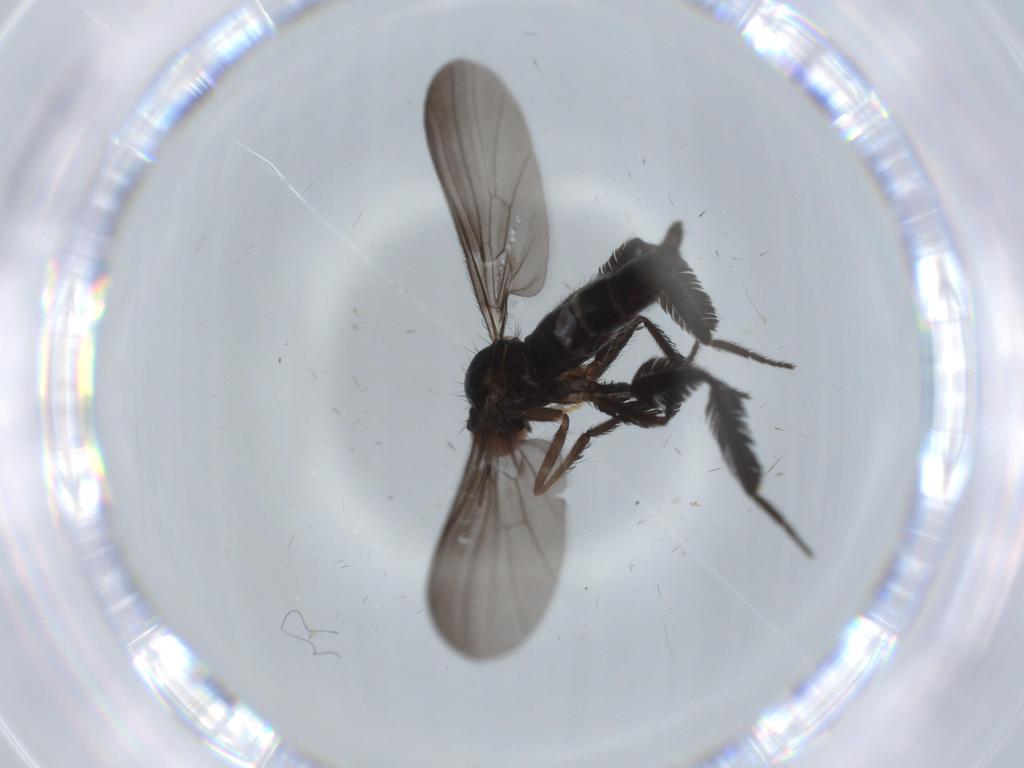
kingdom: Animalia
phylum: Arthropoda
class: Insecta
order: Diptera
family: Empididae
